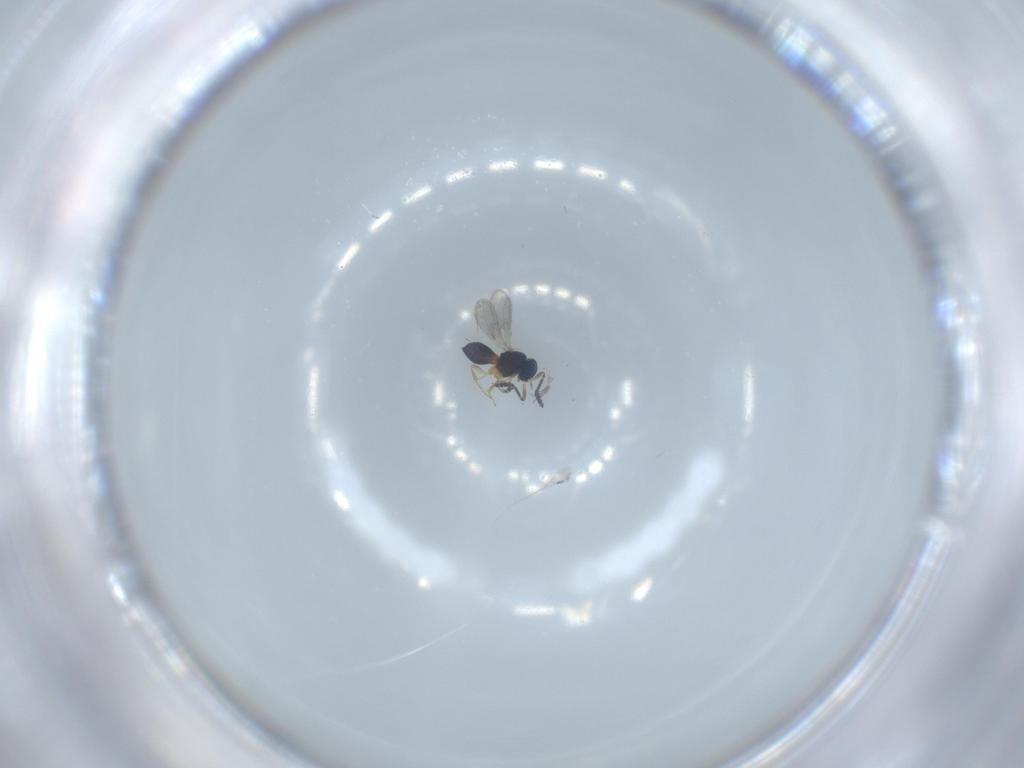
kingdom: Animalia
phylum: Arthropoda
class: Insecta
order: Hymenoptera
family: Scelionidae
